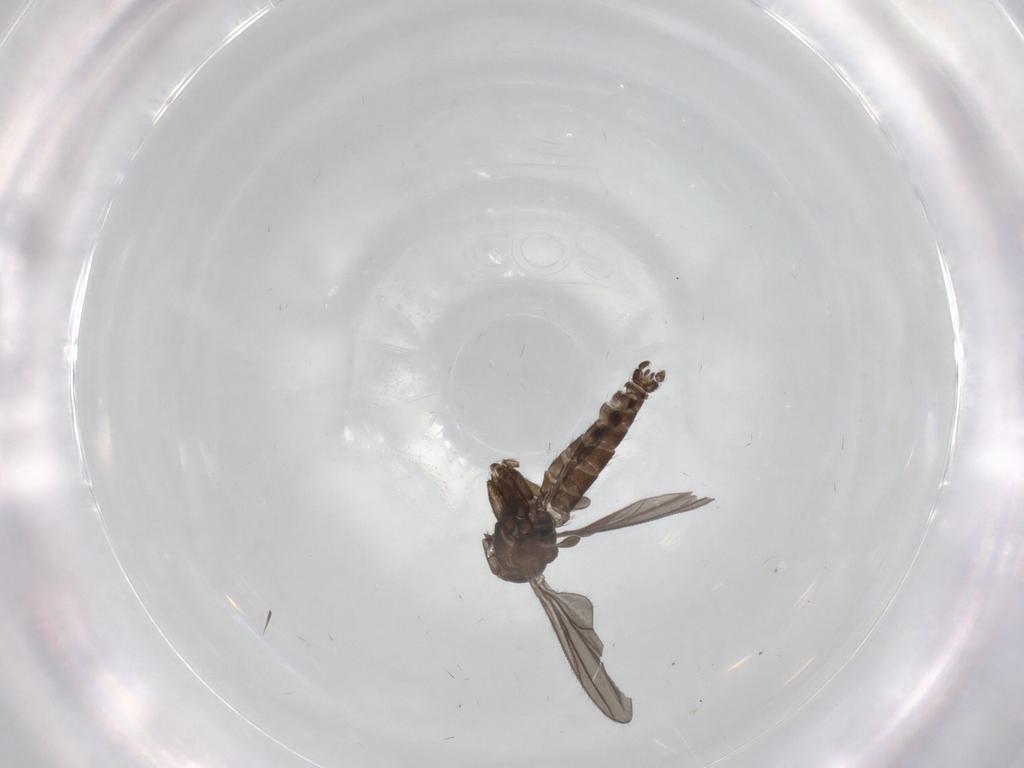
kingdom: Animalia
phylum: Arthropoda
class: Insecta
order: Diptera
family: Sciaridae
